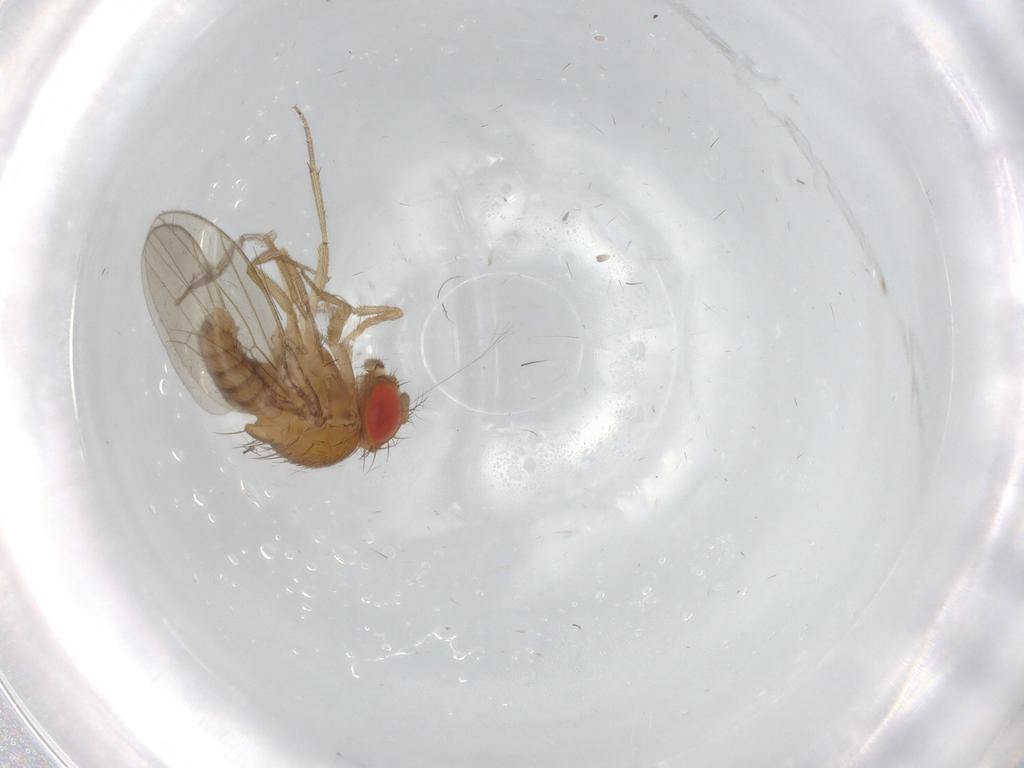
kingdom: Animalia
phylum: Arthropoda
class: Insecta
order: Diptera
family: Drosophilidae
